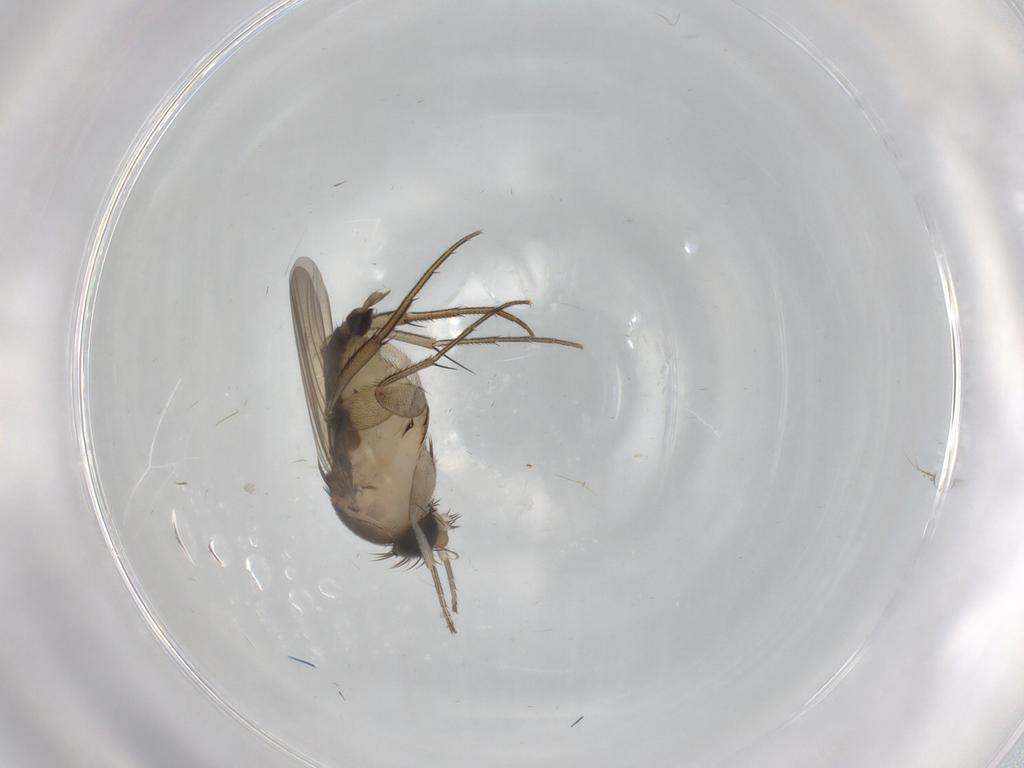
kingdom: Animalia
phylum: Arthropoda
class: Insecta
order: Diptera
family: Phoridae
